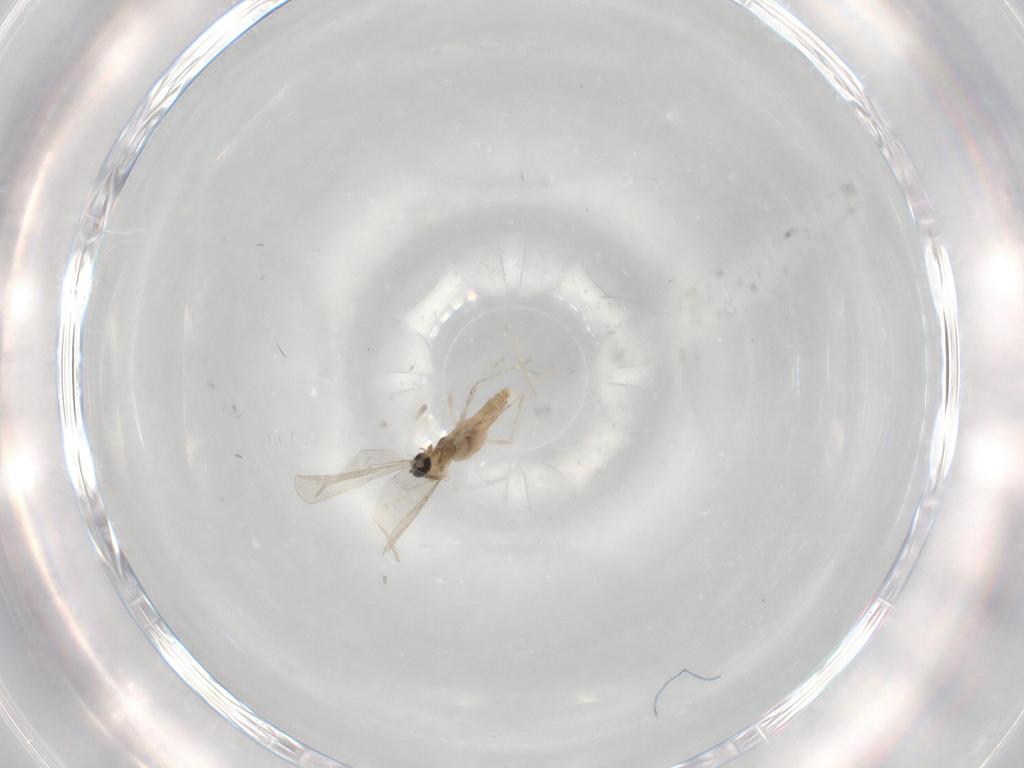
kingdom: Animalia
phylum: Arthropoda
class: Insecta
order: Diptera
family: Cecidomyiidae
